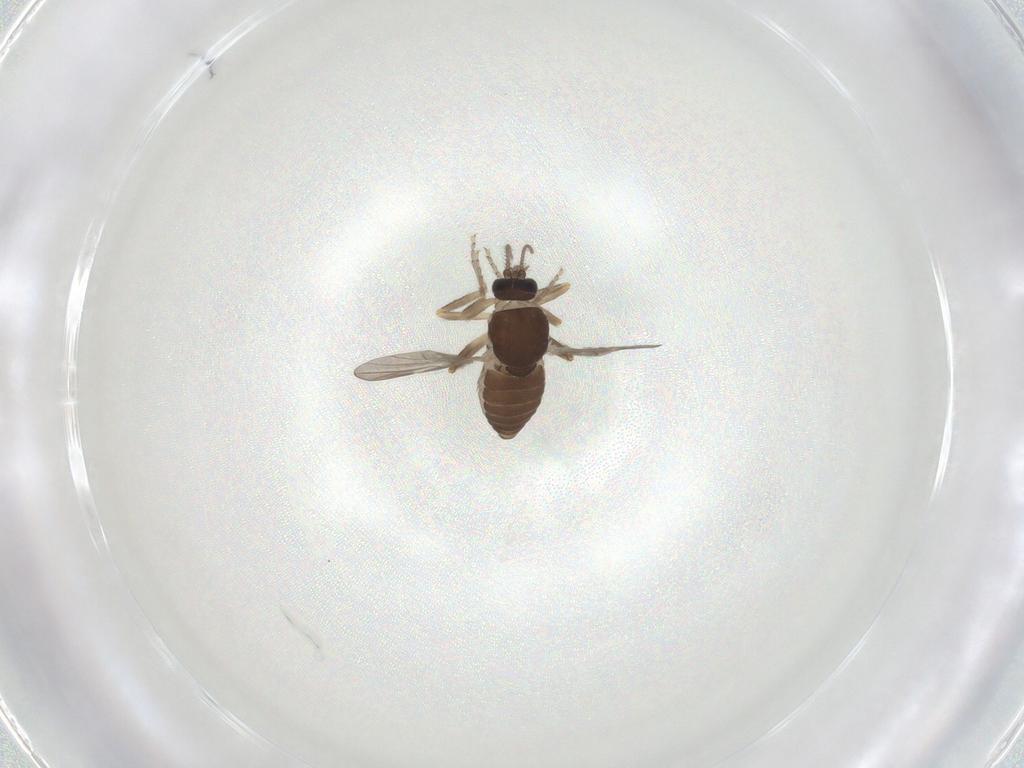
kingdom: Animalia
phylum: Arthropoda
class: Insecta
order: Diptera
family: Ceratopogonidae
